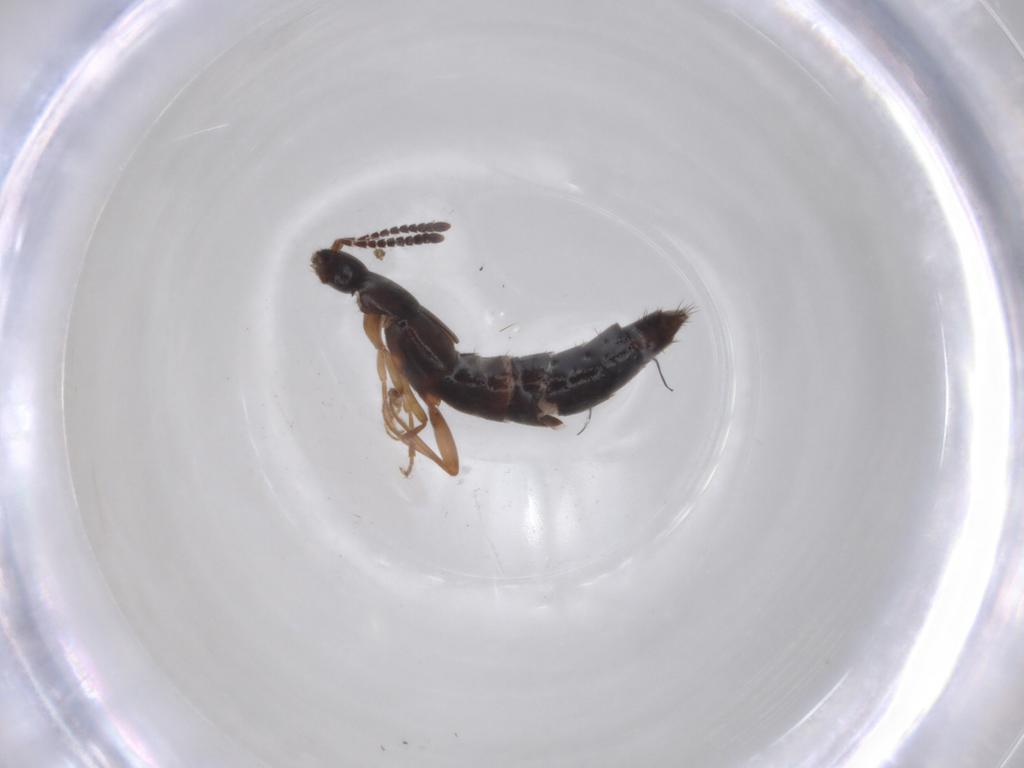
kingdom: Animalia
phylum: Arthropoda
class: Insecta
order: Coleoptera
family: Staphylinidae
